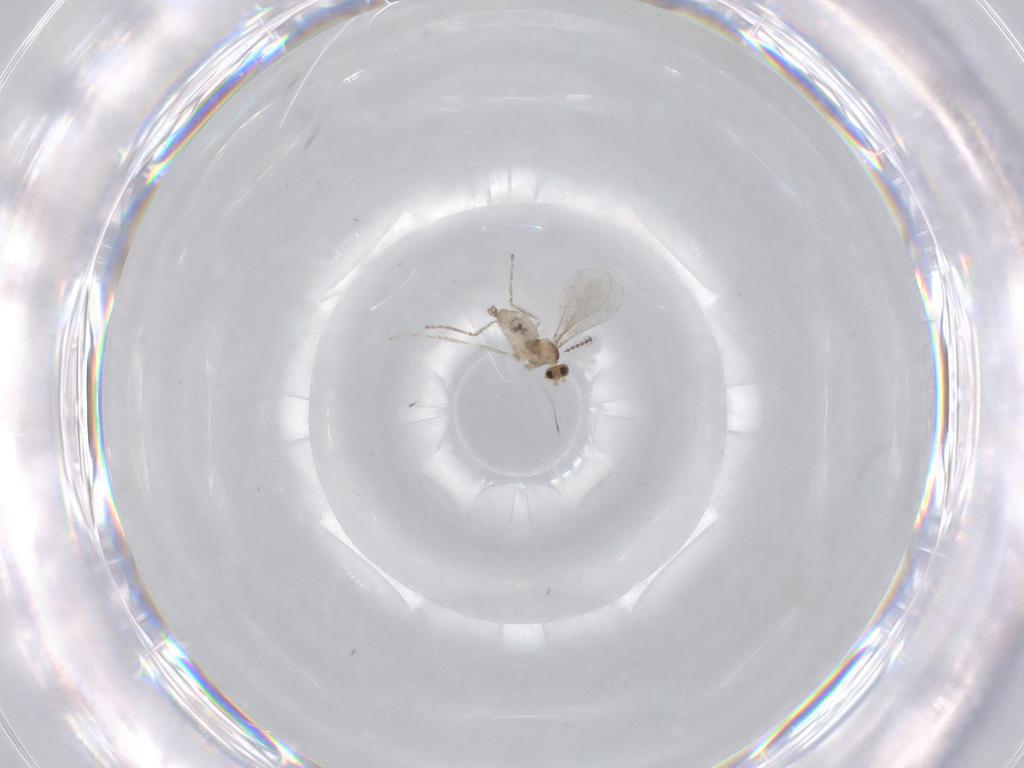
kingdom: Animalia
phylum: Arthropoda
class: Insecta
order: Diptera
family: Cecidomyiidae
